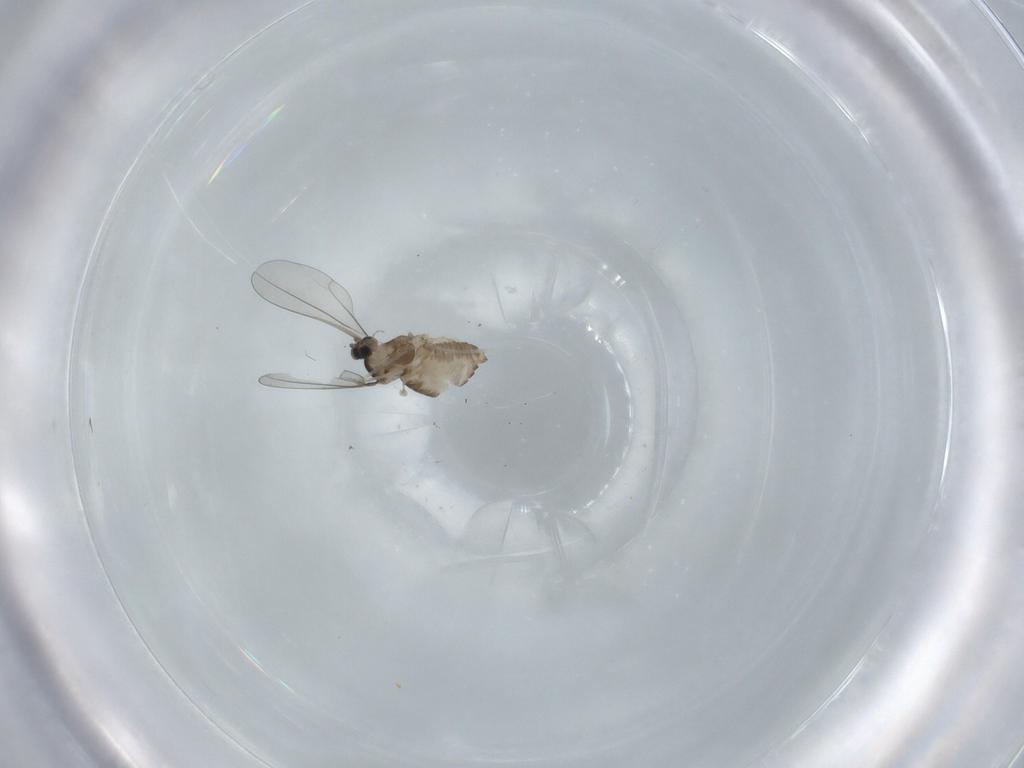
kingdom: Animalia
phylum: Arthropoda
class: Insecta
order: Diptera
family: Cecidomyiidae
